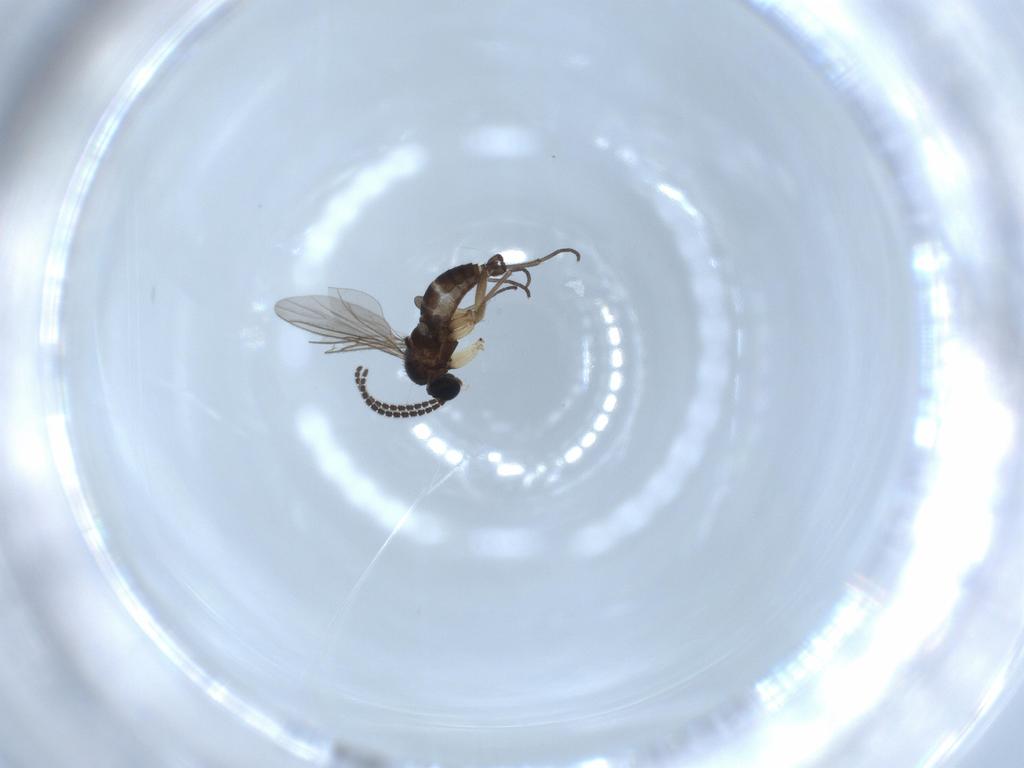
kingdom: Animalia
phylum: Arthropoda
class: Insecta
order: Diptera
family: Sciaridae
